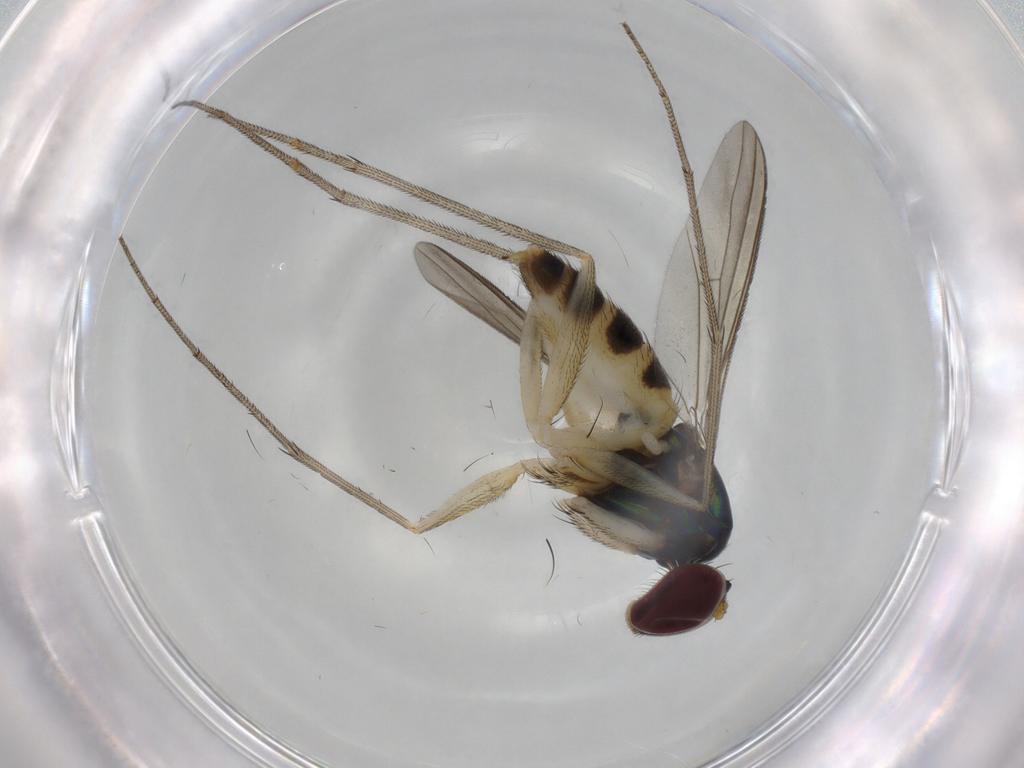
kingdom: Animalia
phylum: Arthropoda
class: Insecta
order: Diptera
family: Dolichopodidae
